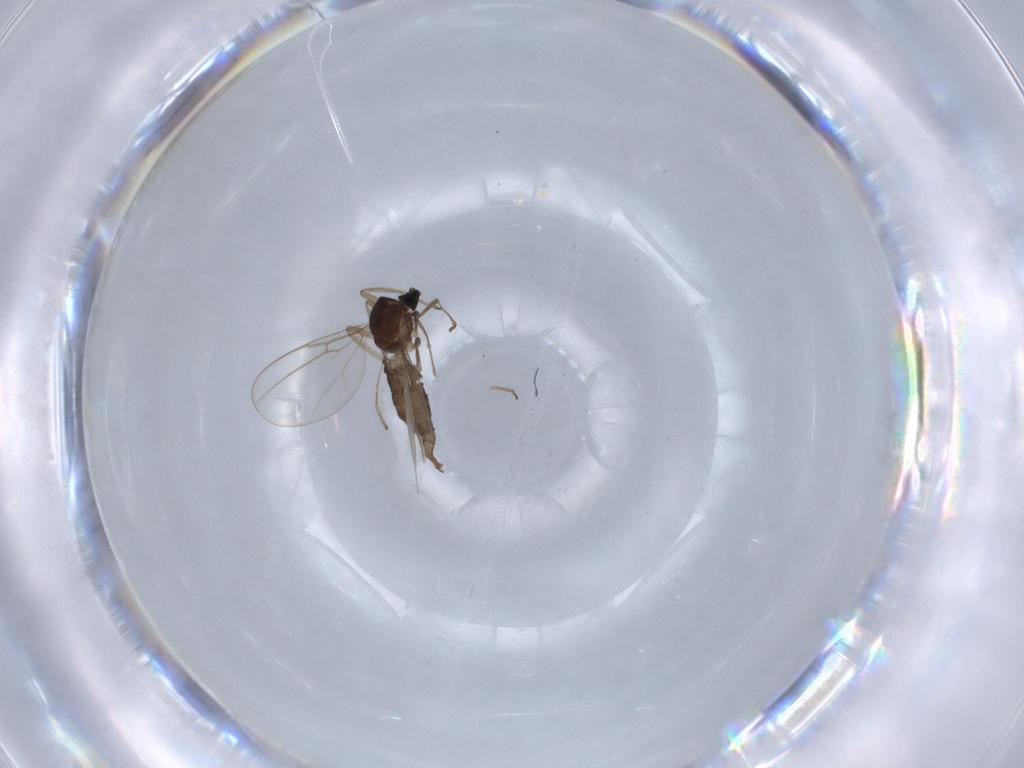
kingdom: Animalia
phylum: Arthropoda
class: Insecta
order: Diptera
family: Cecidomyiidae
